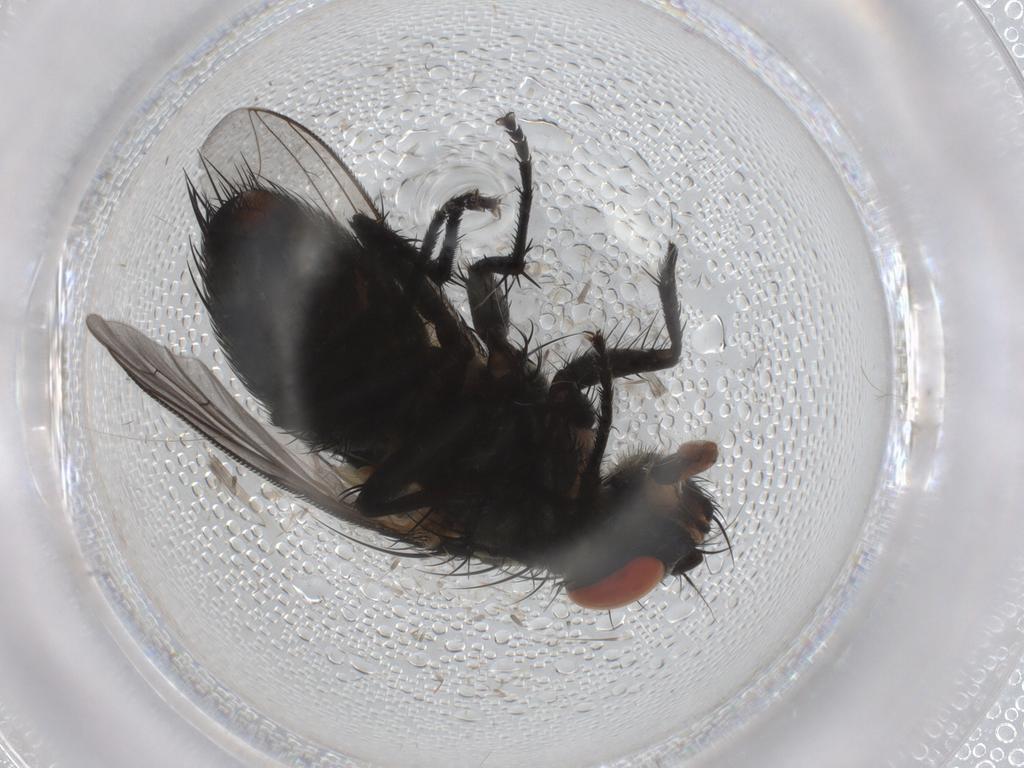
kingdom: Animalia
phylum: Arthropoda
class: Insecta
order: Diptera
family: Sarcophagidae
